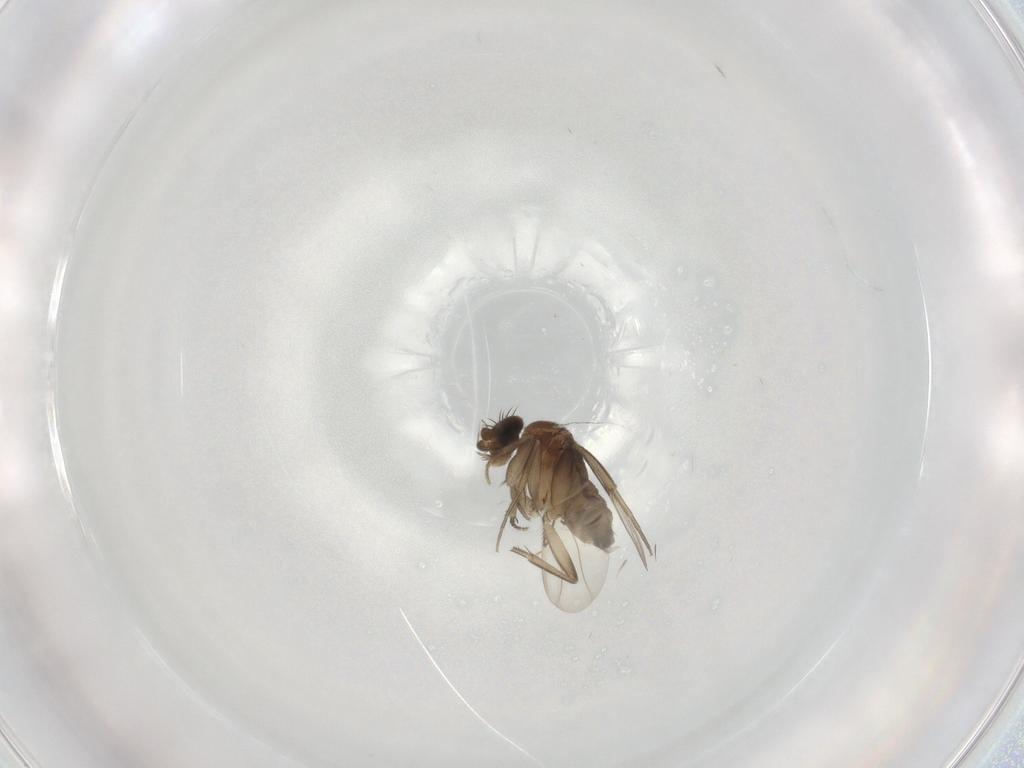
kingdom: Animalia
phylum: Arthropoda
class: Insecta
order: Diptera
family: Phoridae
